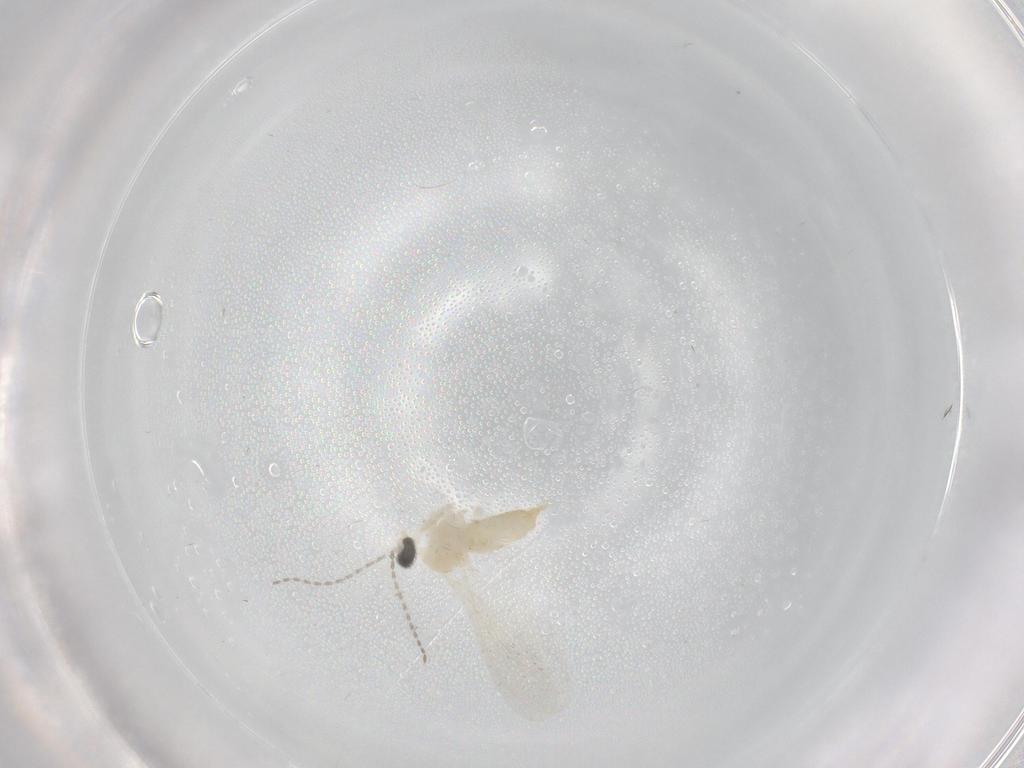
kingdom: Animalia
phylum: Arthropoda
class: Insecta
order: Diptera
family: Cecidomyiidae
